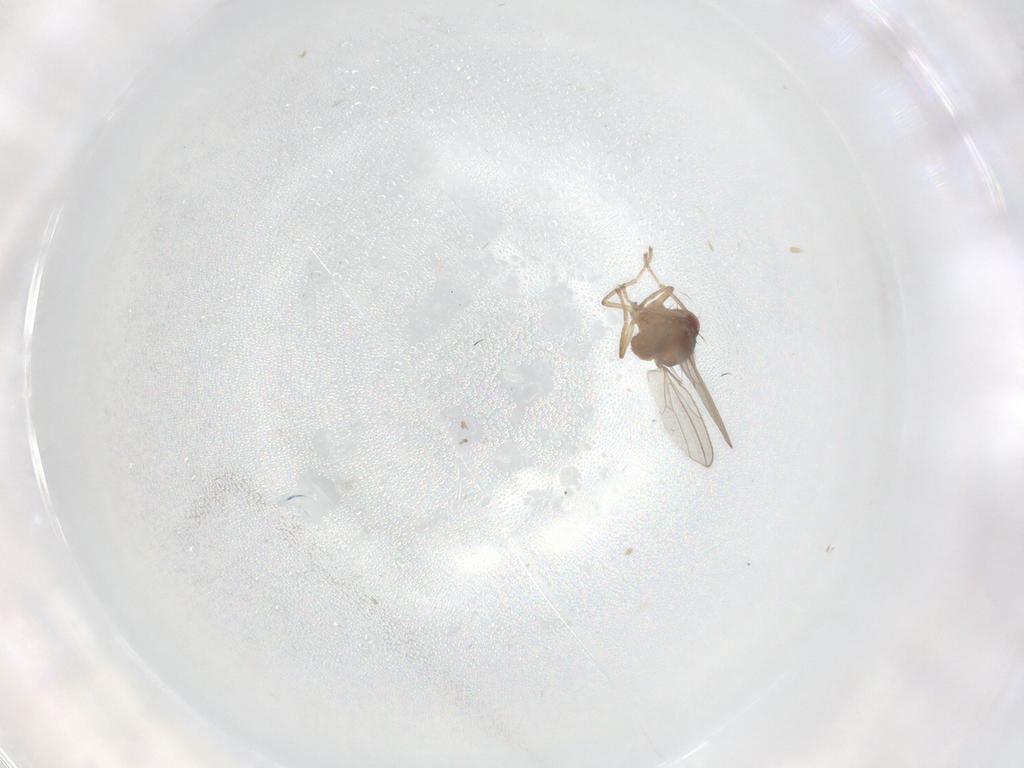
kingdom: Animalia
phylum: Arthropoda
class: Insecta
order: Diptera
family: Ephydridae
